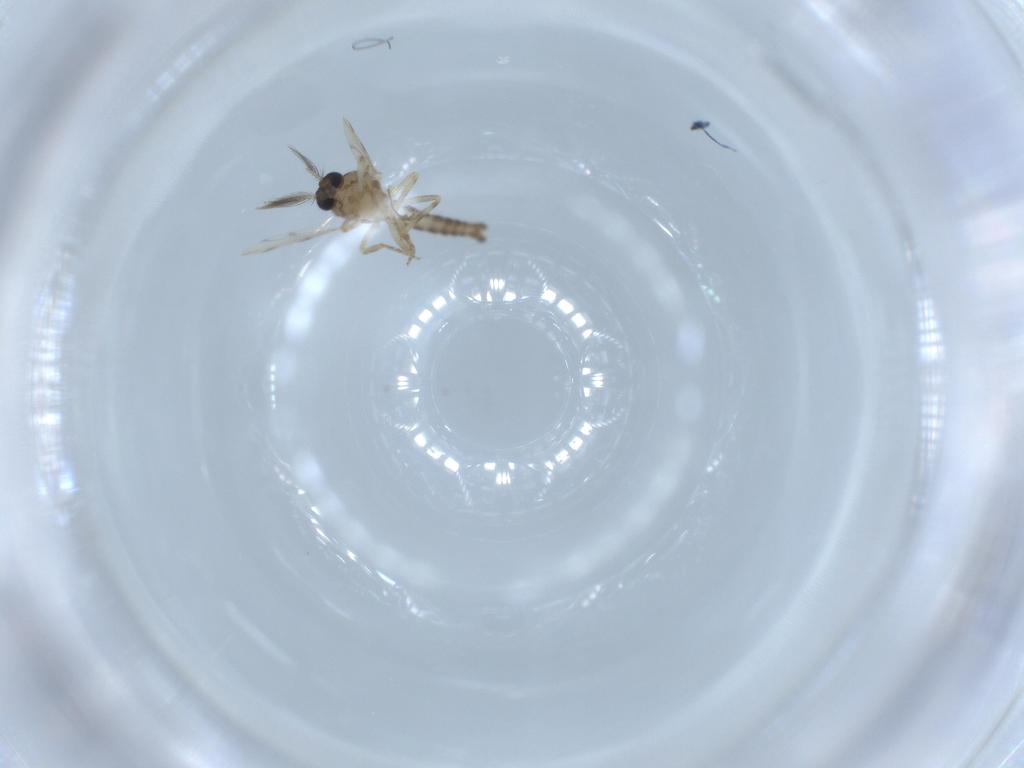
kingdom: Animalia
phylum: Arthropoda
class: Insecta
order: Diptera
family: Ceratopogonidae
